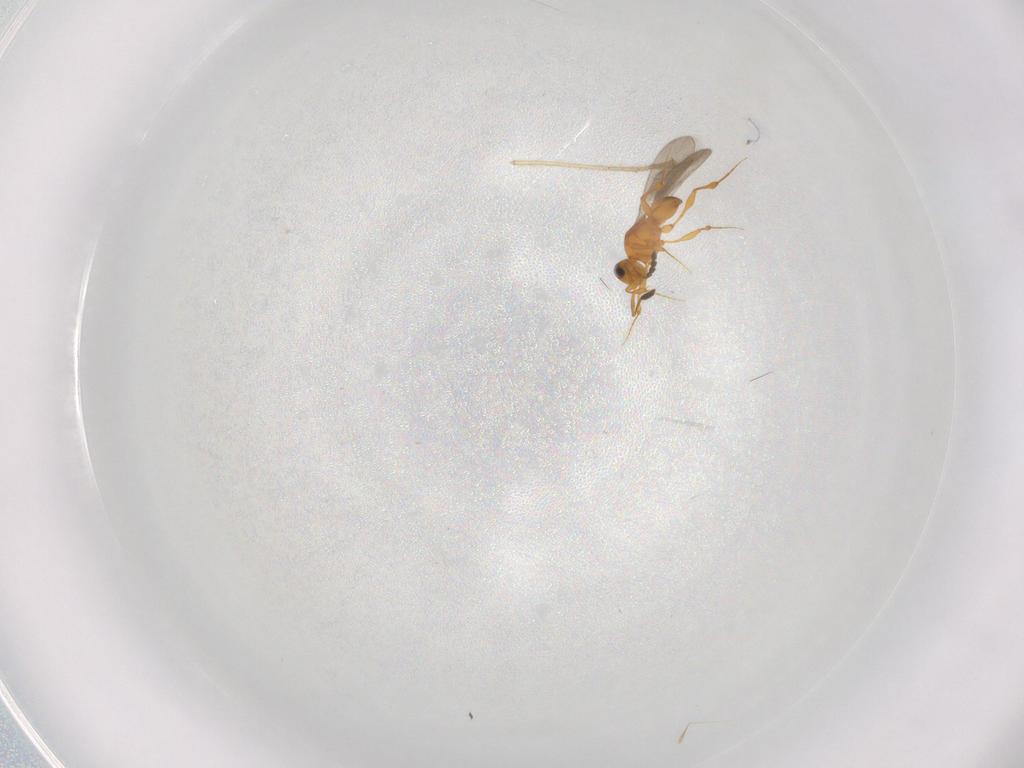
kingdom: Animalia
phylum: Arthropoda
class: Insecta
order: Hymenoptera
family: Platygastridae
